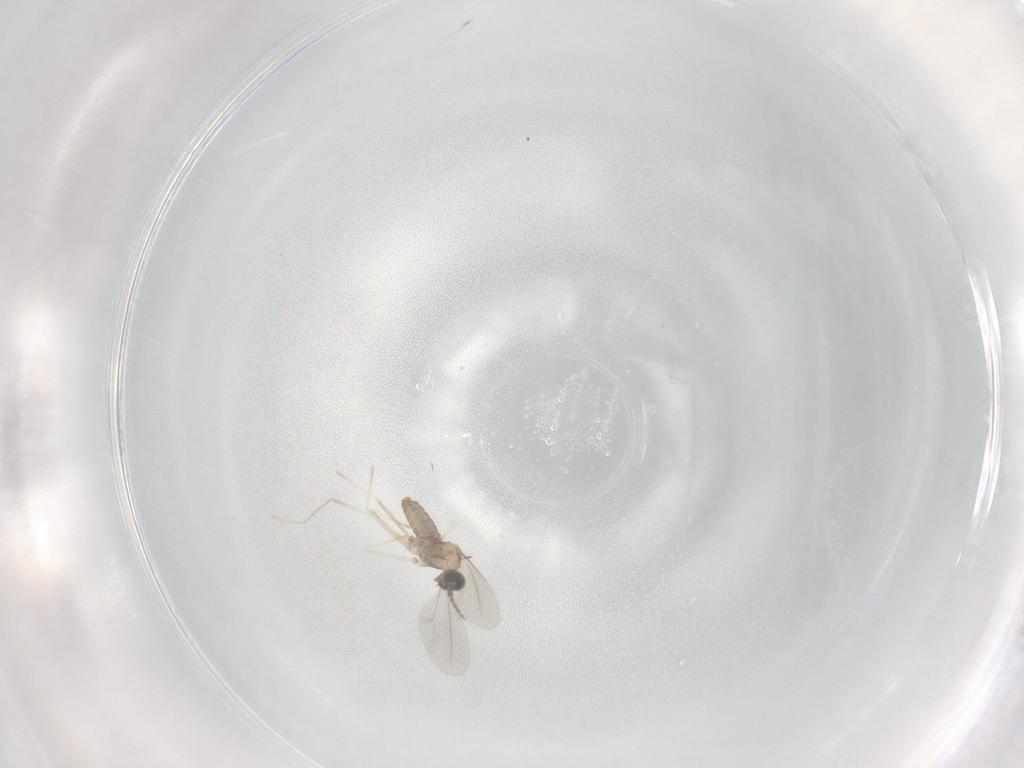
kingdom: Animalia
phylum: Arthropoda
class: Insecta
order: Diptera
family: Cecidomyiidae
